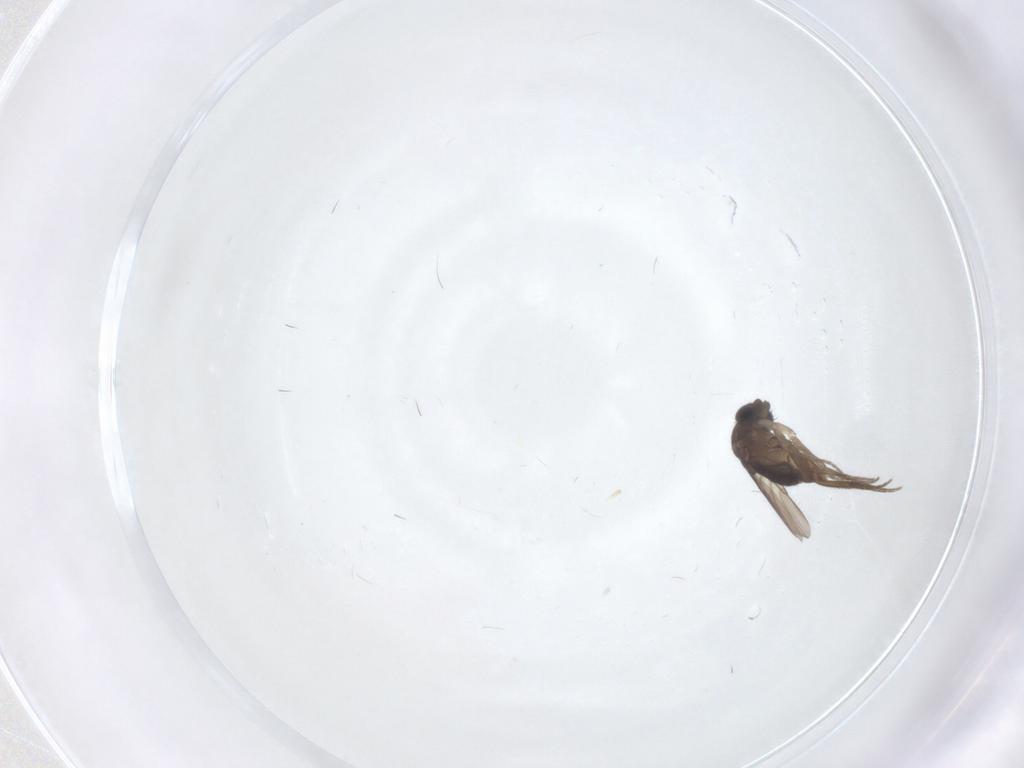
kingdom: Animalia
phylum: Arthropoda
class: Insecta
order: Diptera
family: Phoridae
